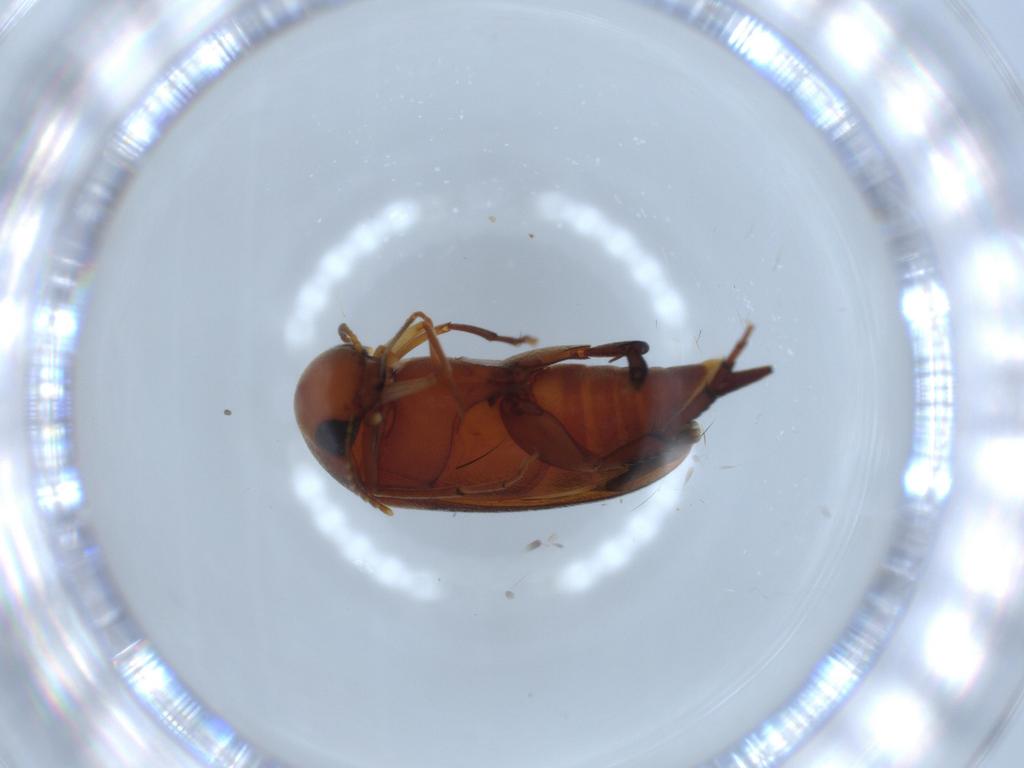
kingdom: Animalia
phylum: Arthropoda
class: Insecta
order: Coleoptera
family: Mordellidae
